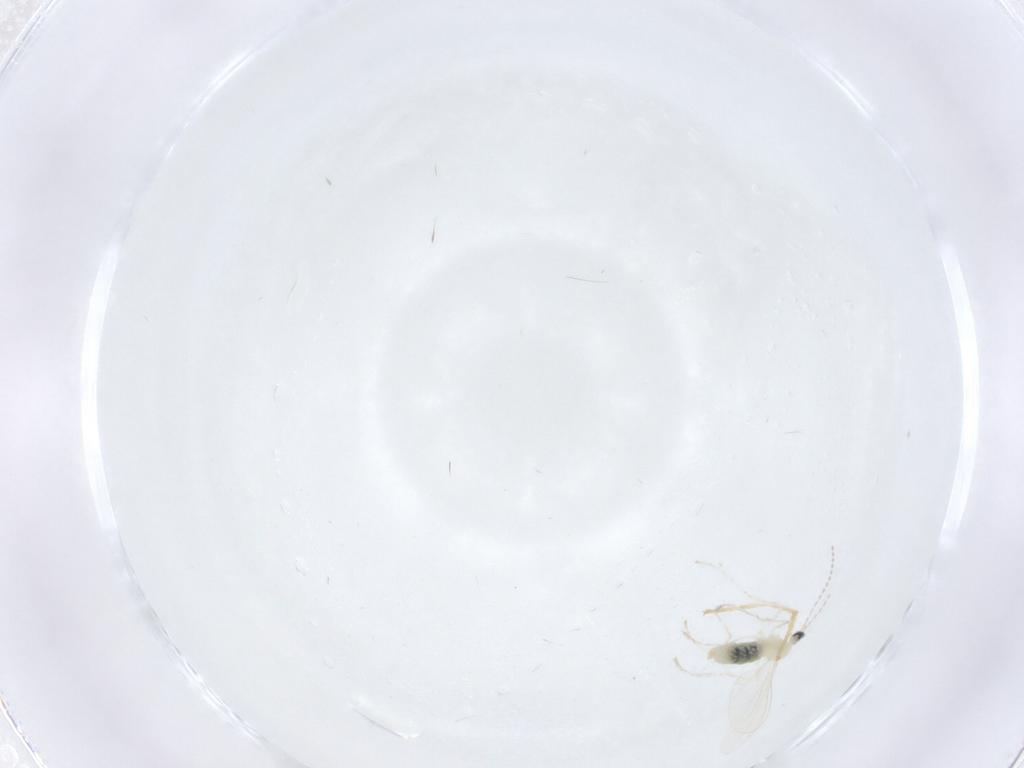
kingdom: Animalia
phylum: Arthropoda
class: Insecta
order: Diptera
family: Chironomidae
